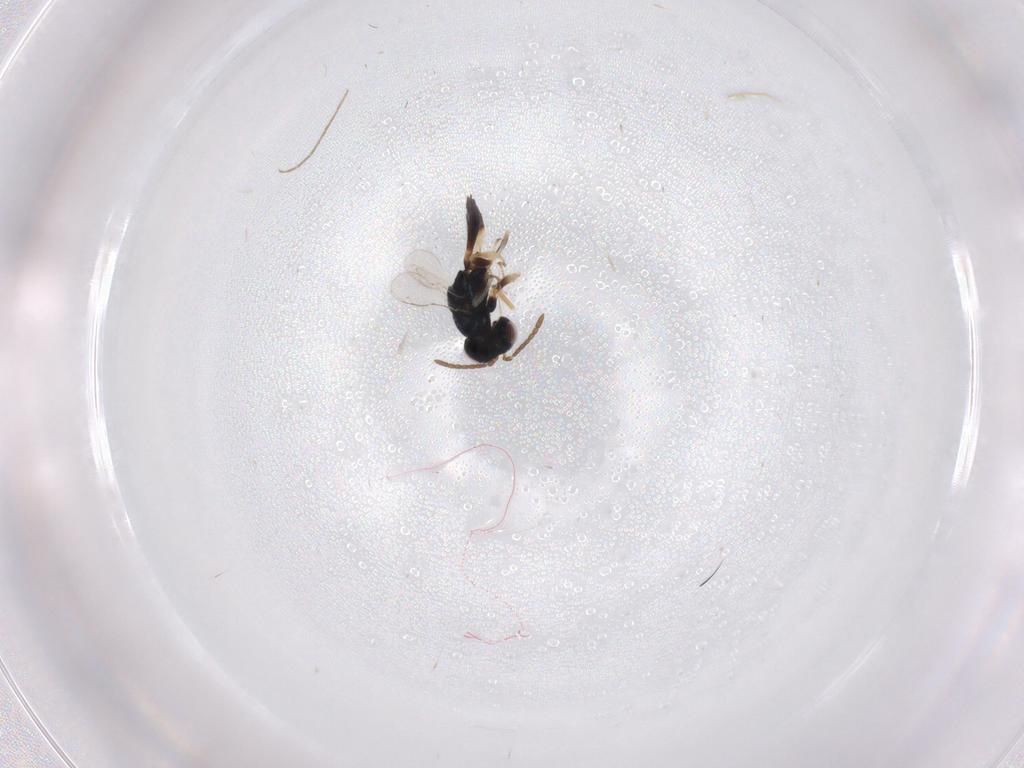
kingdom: Animalia
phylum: Arthropoda
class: Insecta
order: Hymenoptera
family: Pteromalidae
